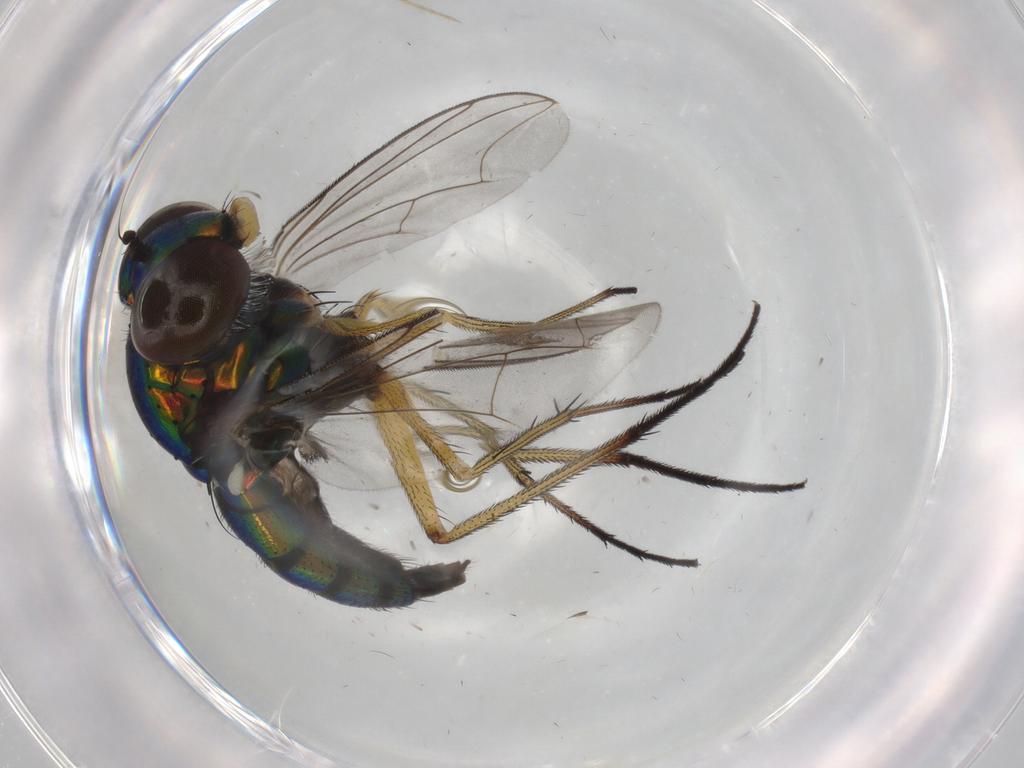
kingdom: Animalia
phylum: Arthropoda
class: Insecta
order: Diptera
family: Dolichopodidae
